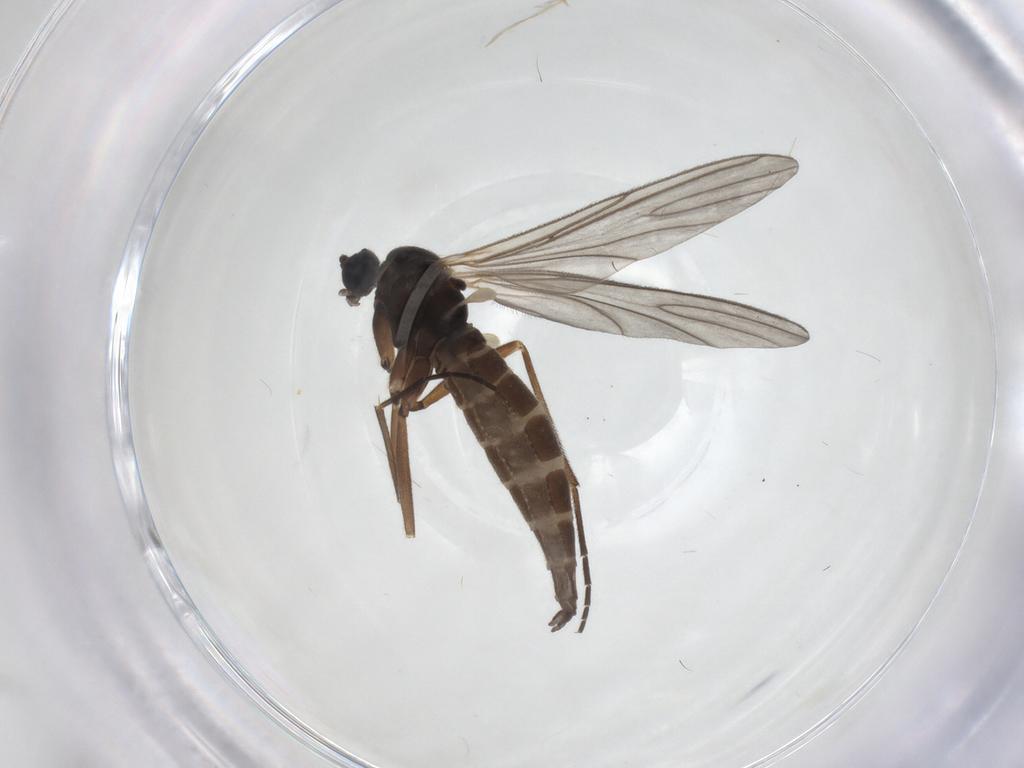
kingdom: Animalia
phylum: Arthropoda
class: Insecta
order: Diptera
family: Sciaridae
